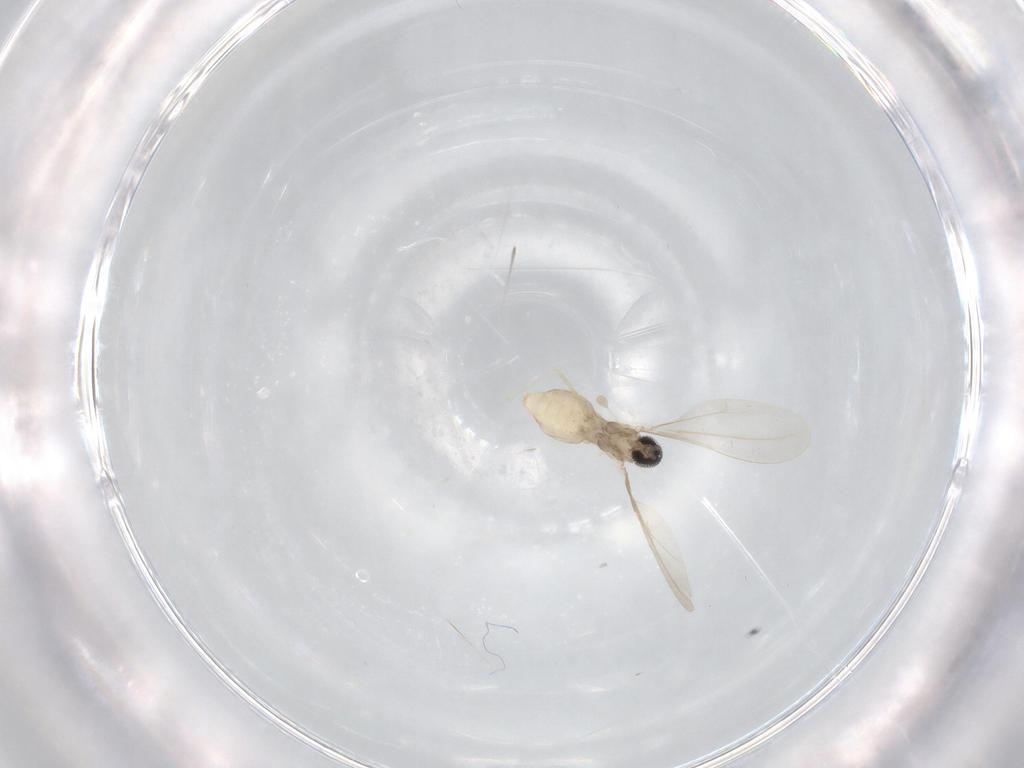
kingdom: Animalia
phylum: Arthropoda
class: Insecta
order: Diptera
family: Cecidomyiidae
